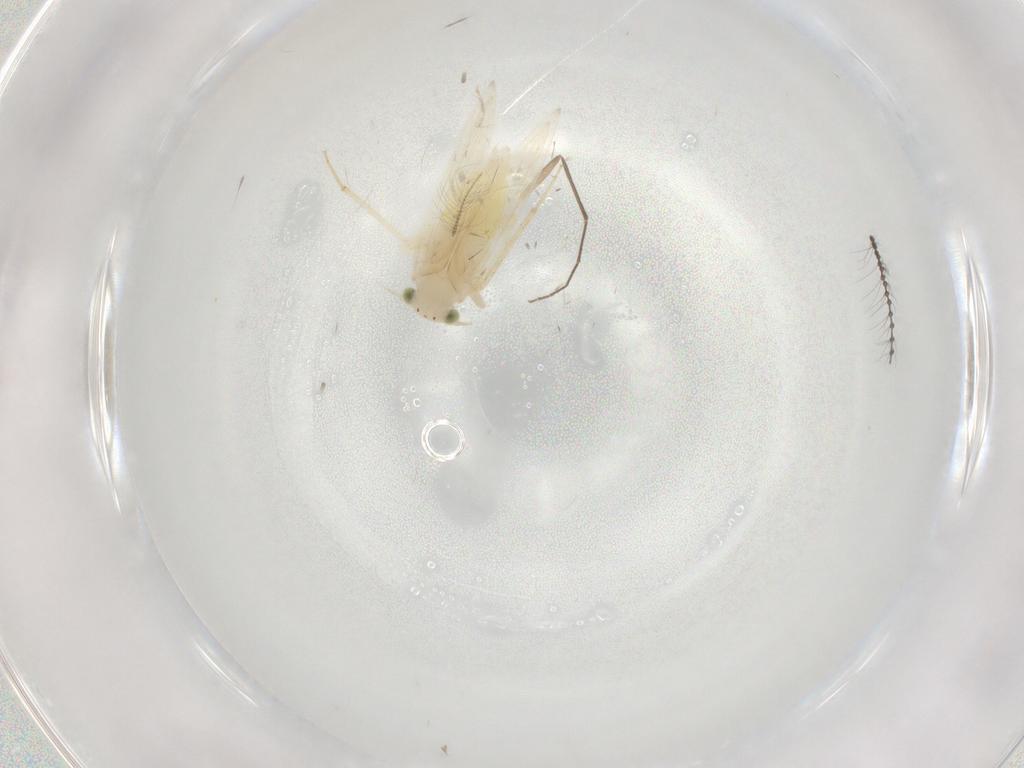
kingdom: Animalia
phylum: Arthropoda
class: Insecta
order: Psocodea
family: Lepidopsocidae
